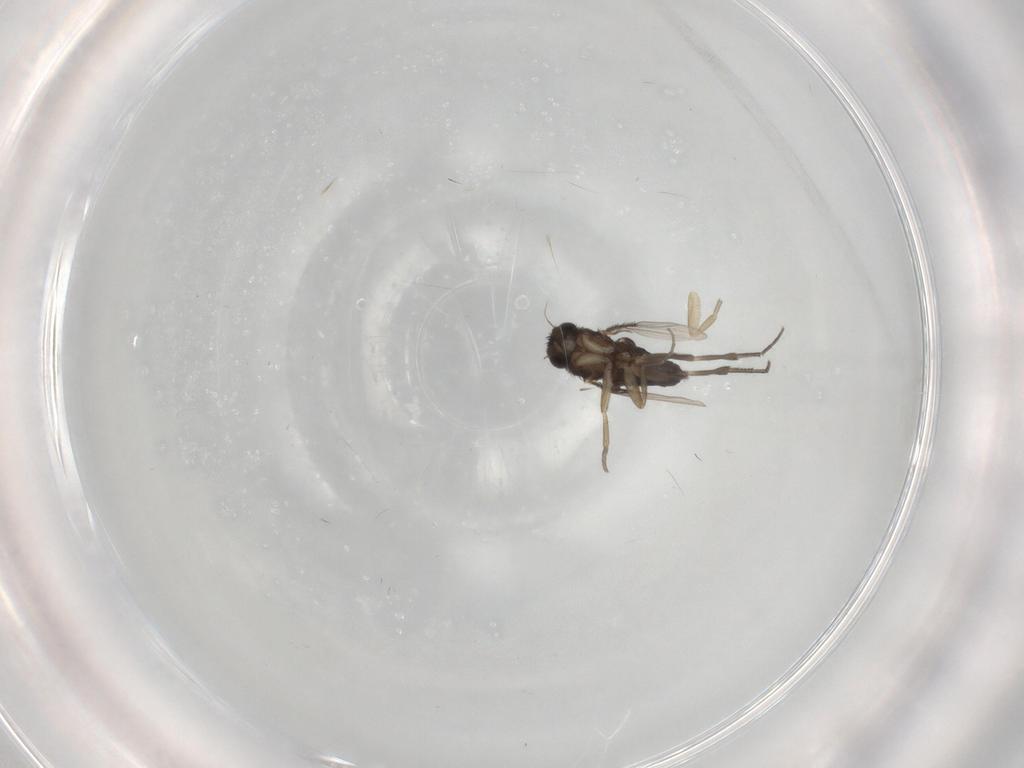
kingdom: Animalia
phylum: Arthropoda
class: Insecta
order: Diptera
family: Phoridae
